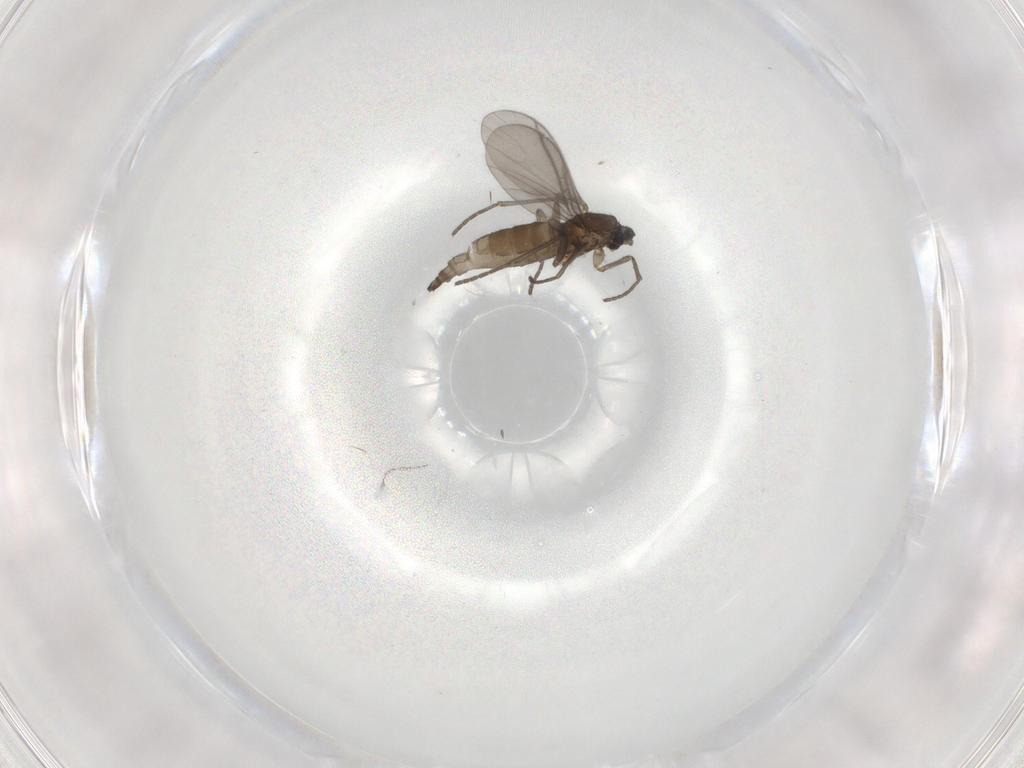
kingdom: Animalia
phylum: Arthropoda
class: Insecta
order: Diptera
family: Sciaridae
